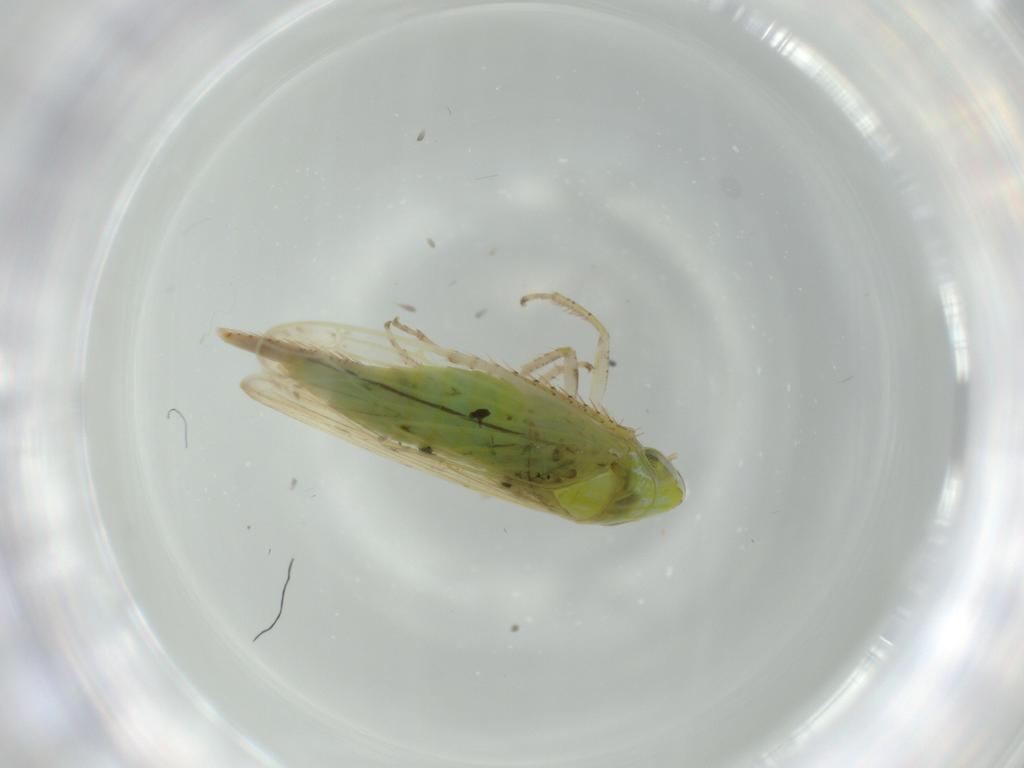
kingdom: Animalia
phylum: Arthropoda
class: Insecta
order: Hemiptera
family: Cicadellidae
